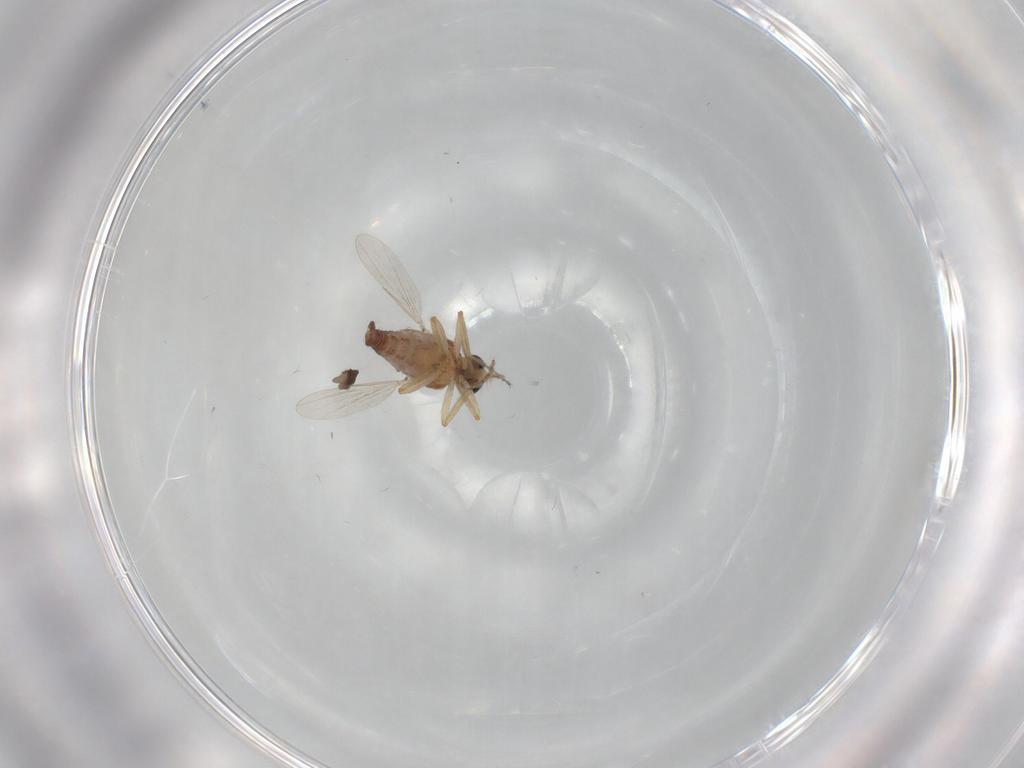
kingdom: Animalia
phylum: Arthropoda
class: Insecta
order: Diptera
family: Ceratopogonidae
